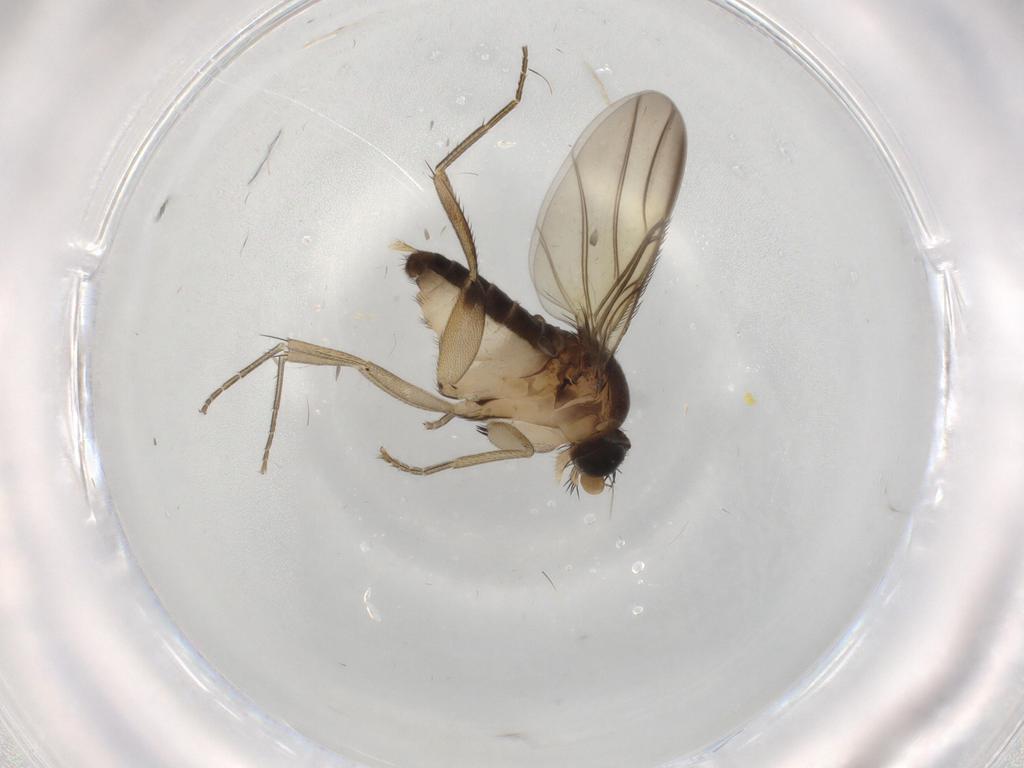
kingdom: Animalia
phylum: Arthropoda
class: Insecta
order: Diptera
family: Phoridae
